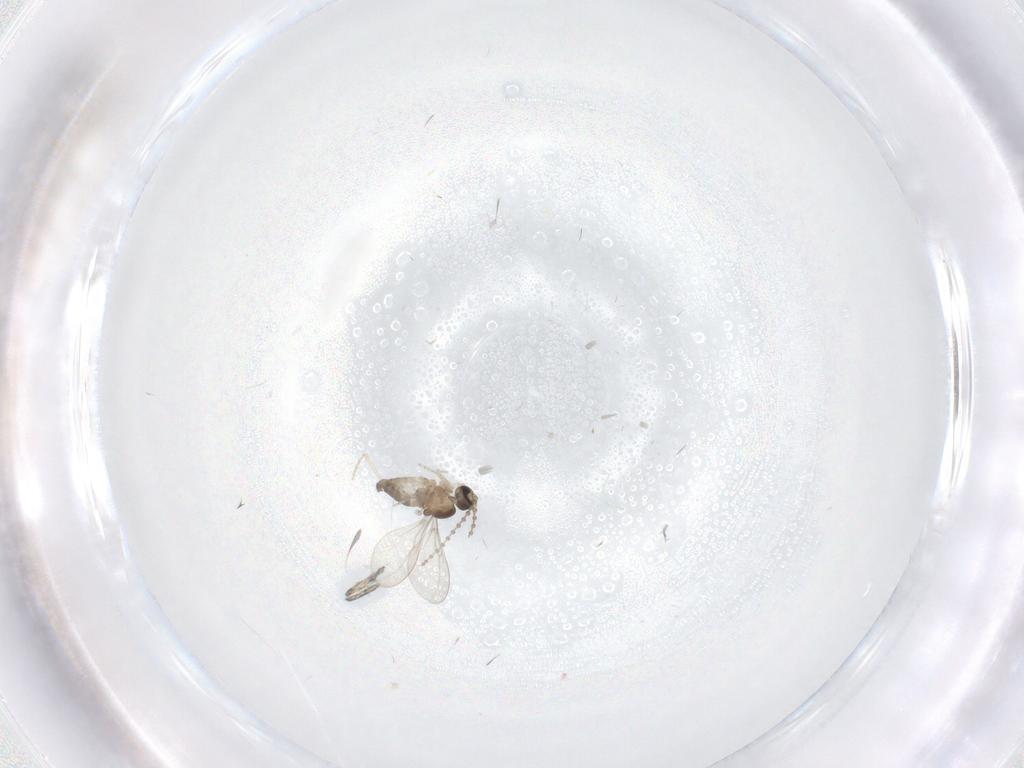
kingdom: Animalia
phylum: Arthropoda
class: Insecta
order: Diptera
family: Cecidomyiidae
